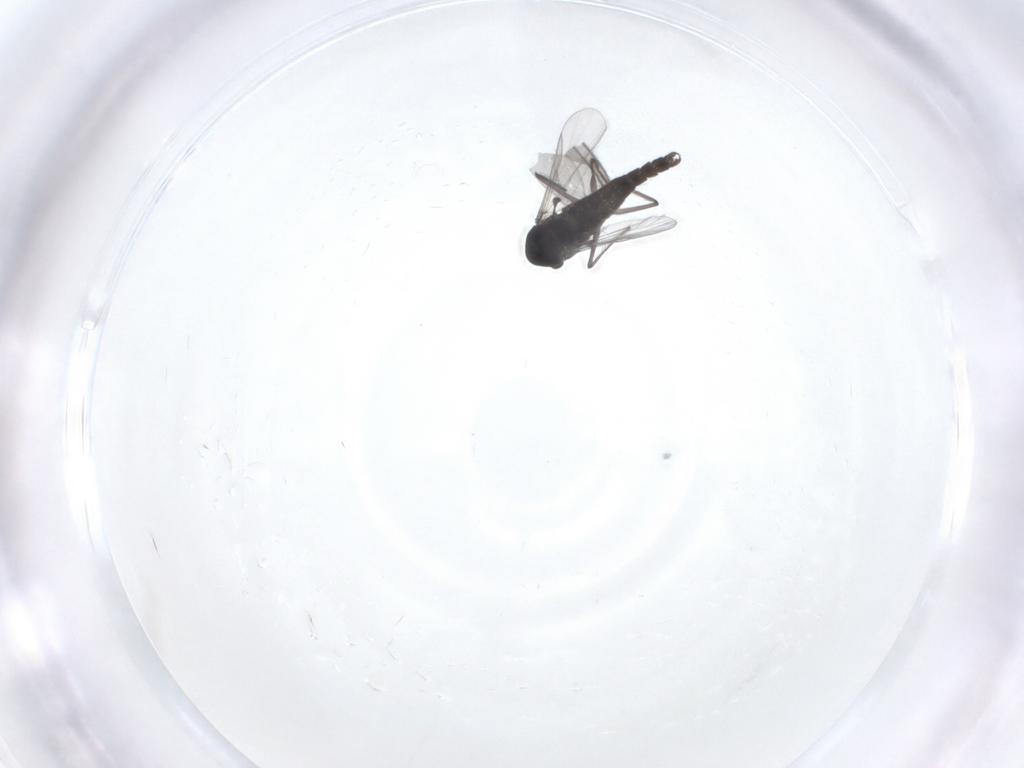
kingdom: Animalia
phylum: Arthropoda
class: Insecta
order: Diptera
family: Chironomidae
